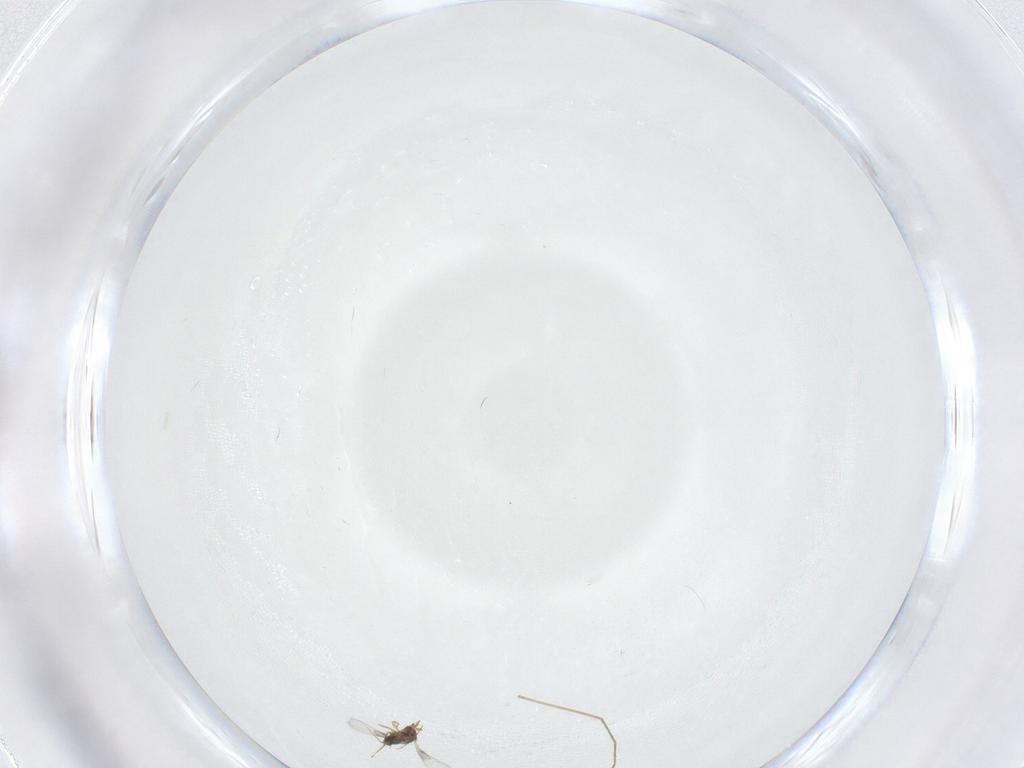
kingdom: Animalia
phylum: Arthropoda
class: Insecta
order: Hymenoptera
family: Trichogrammatidae
